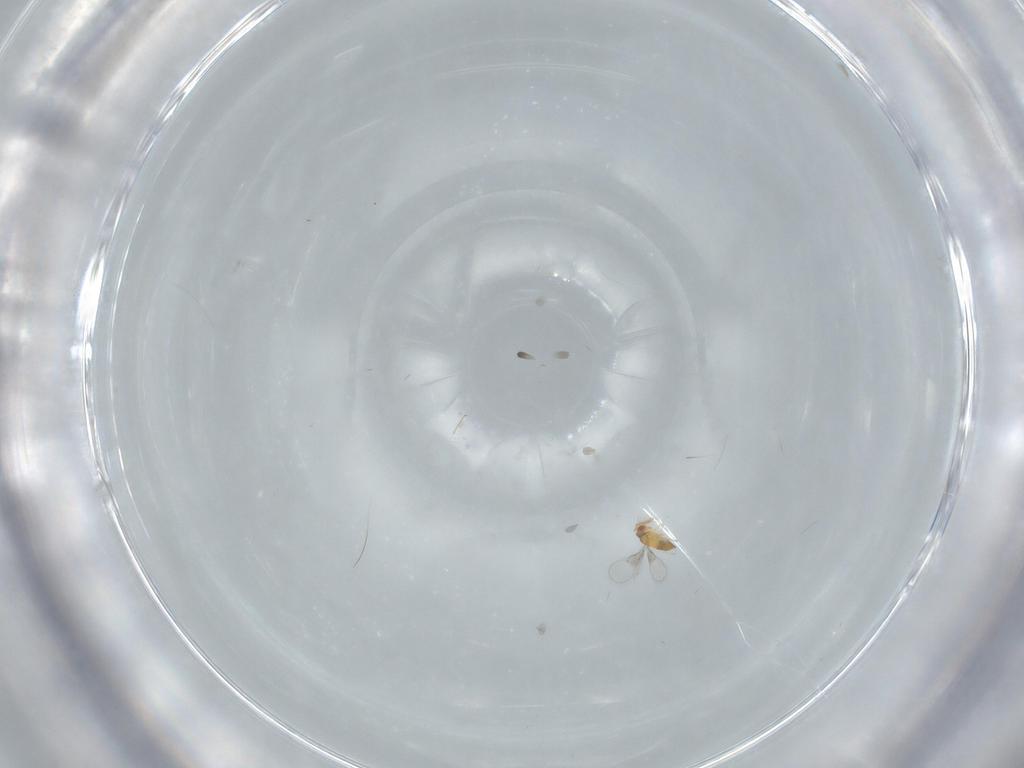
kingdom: Animalia
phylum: Arthropoda
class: Insecta
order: Hymenoptera
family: Trichogrammatidae
